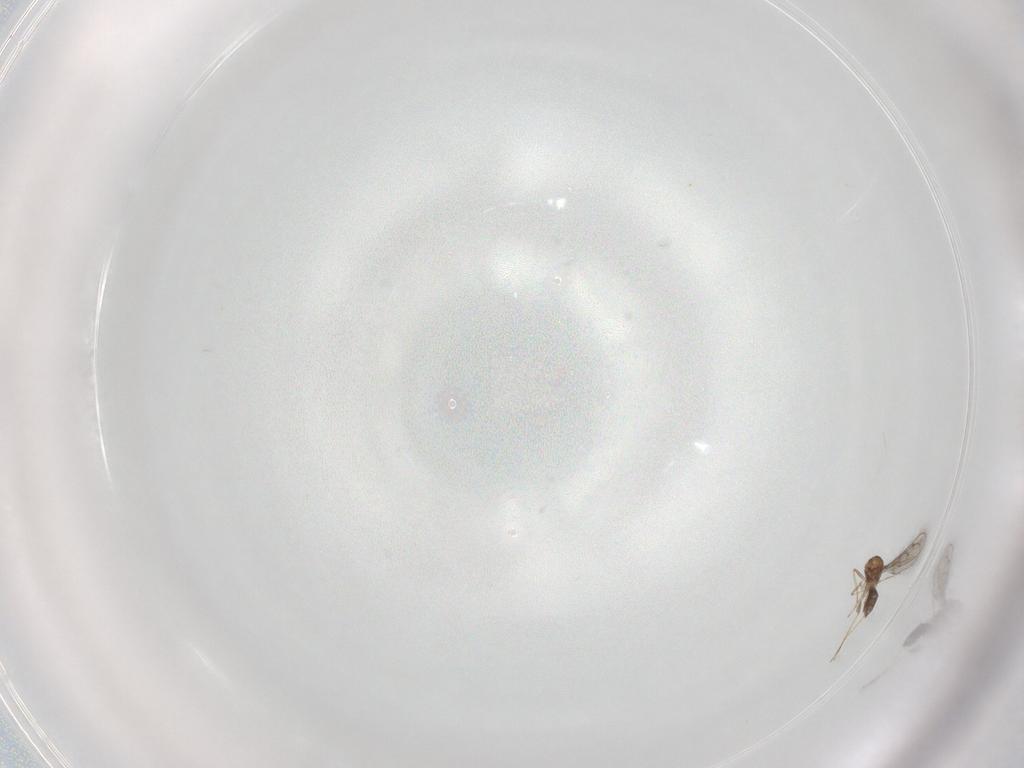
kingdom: Animalia
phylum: Arthropoda
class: Insecta
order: Hymenoptera
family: Eulophidae
